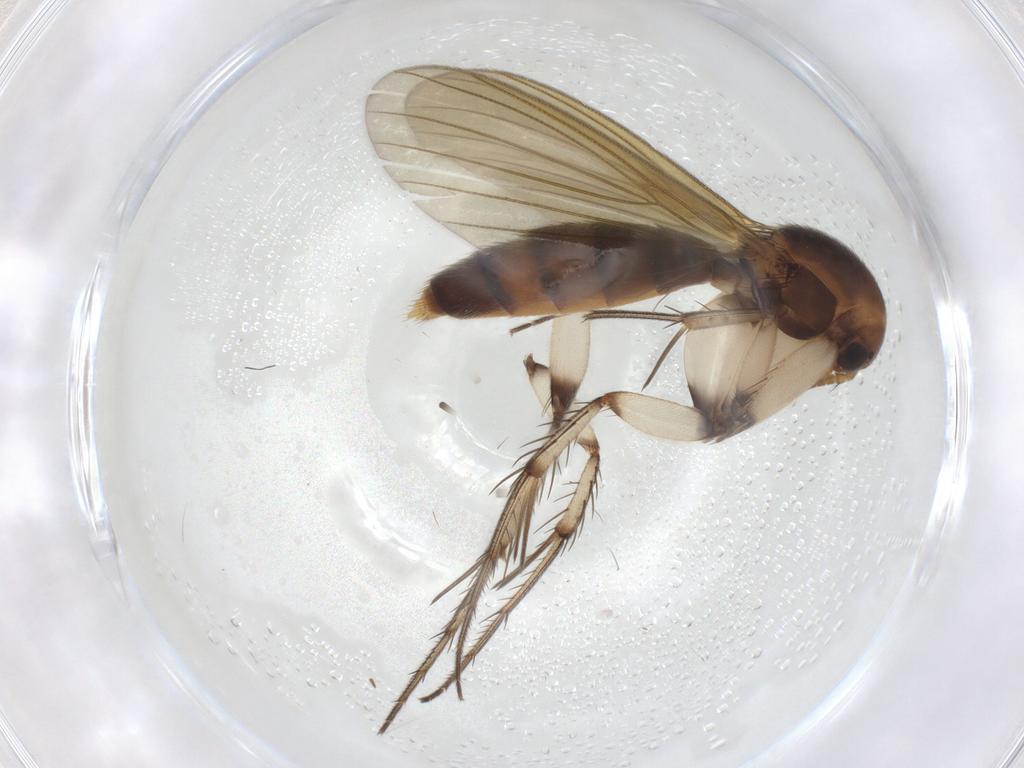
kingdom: Animalia
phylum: Arthropoda
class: Insecta
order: Diptera
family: Mycetophilidae
